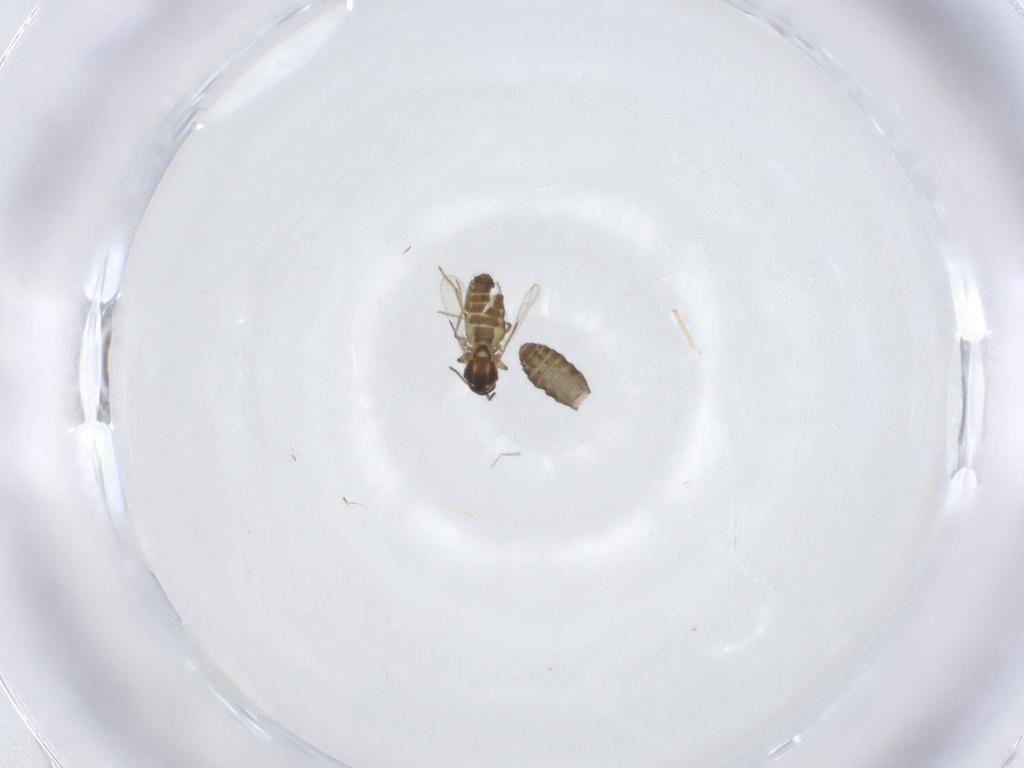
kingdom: Animalia
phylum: Arthropoda
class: Insecta
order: Diptera
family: Ceratopogonidae
